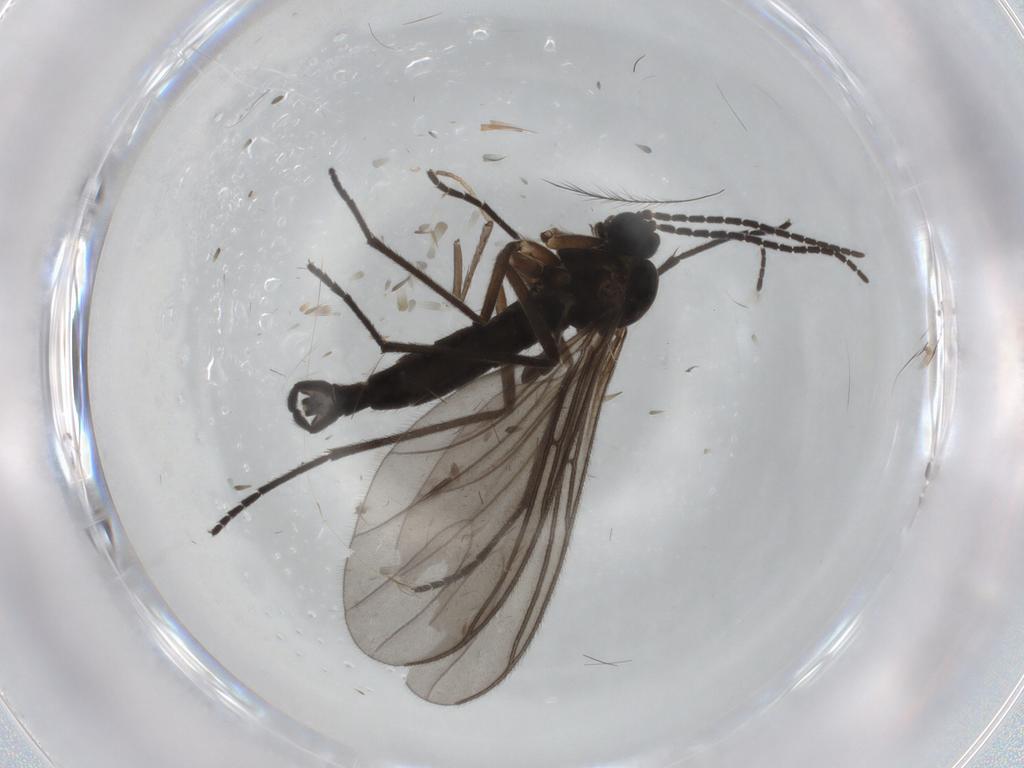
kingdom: Animalia
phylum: Arthropoda
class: Insecta
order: Diptera
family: Sciaridae
